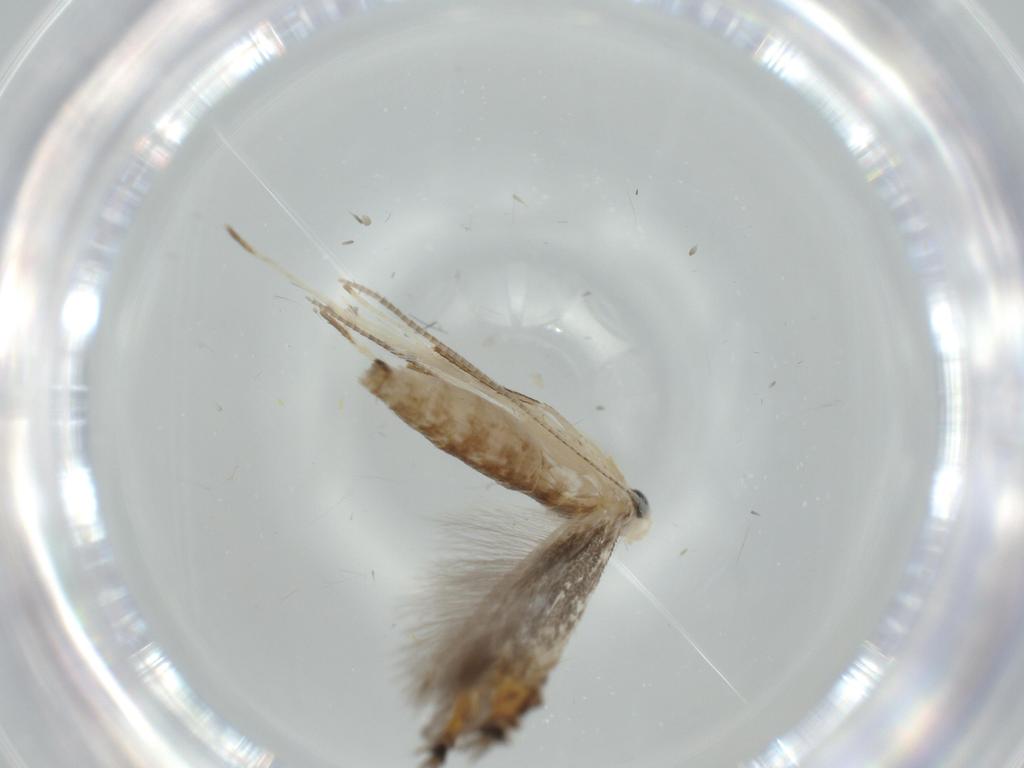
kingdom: Animalia
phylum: Arthropoda
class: Insecta
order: Lepidoptera
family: Gracillariidae
